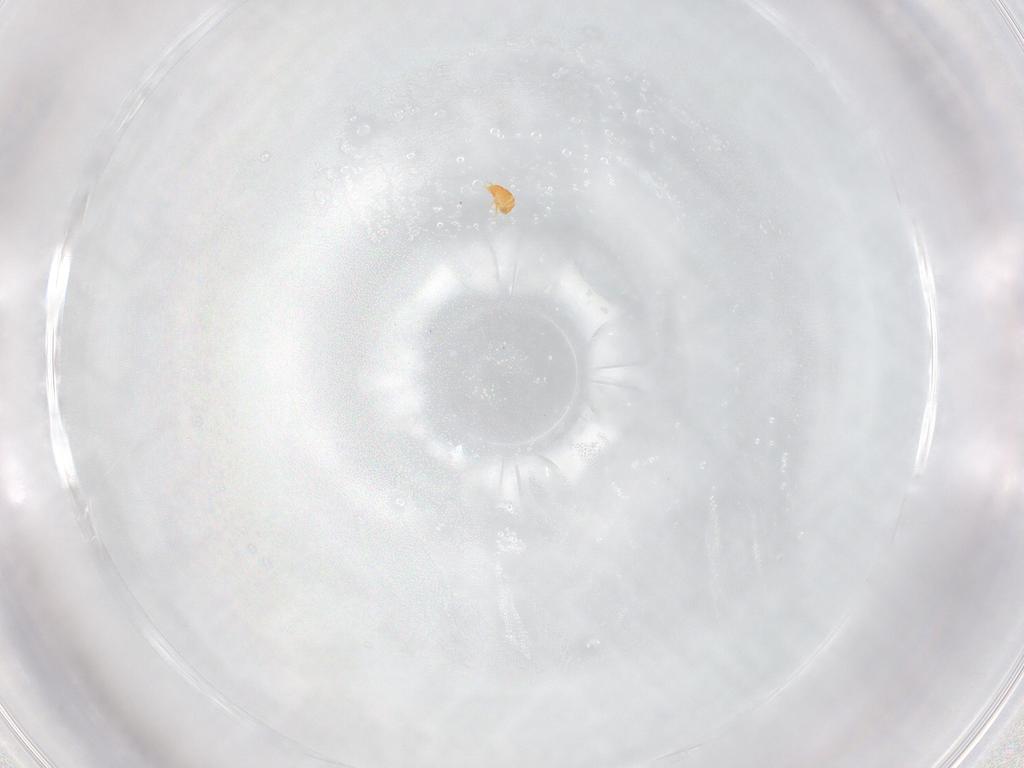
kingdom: Animalia
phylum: Arthropoda
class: Arachnida
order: Sarcoptiformes
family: Brachychthoniidae
